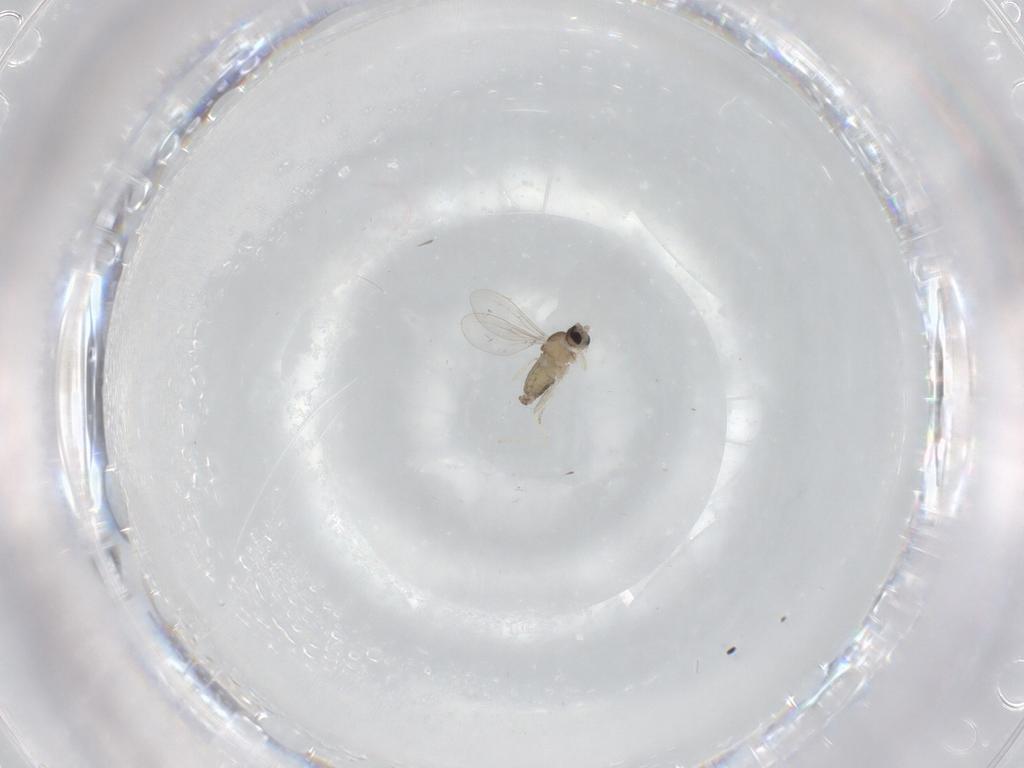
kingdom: Animalia
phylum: Arthropoda
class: Insecta
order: Diptera
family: Cecidomyiidae
